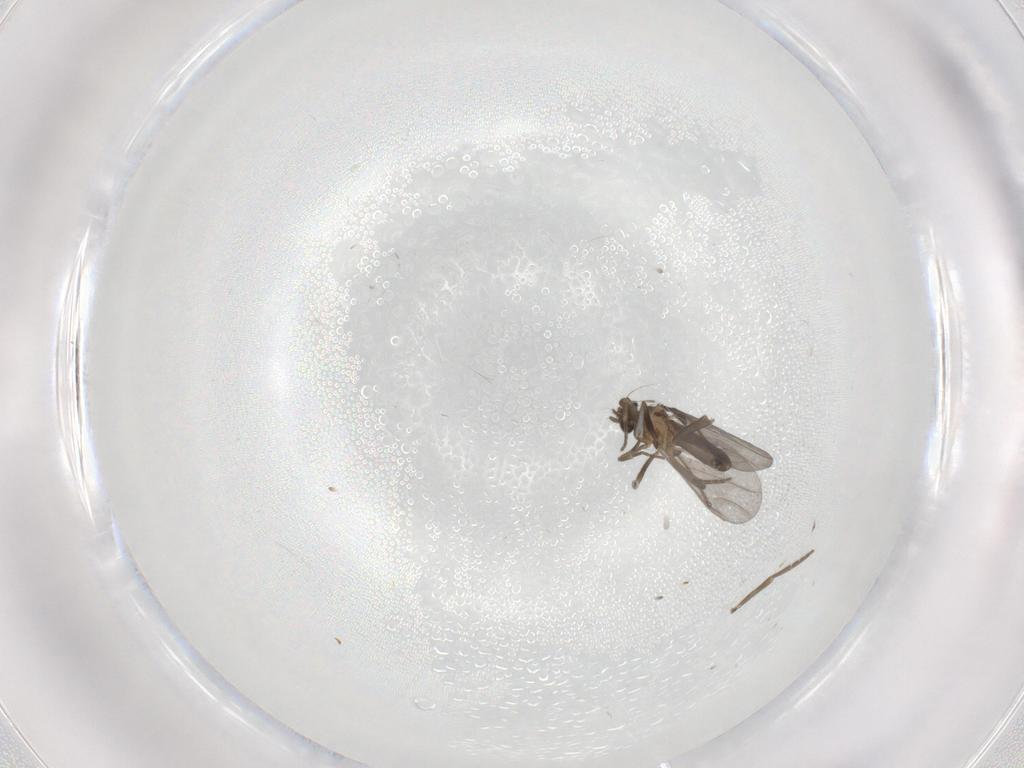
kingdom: Animalia
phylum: Arthropoda
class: Insecta
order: Diptera
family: Phoridae
